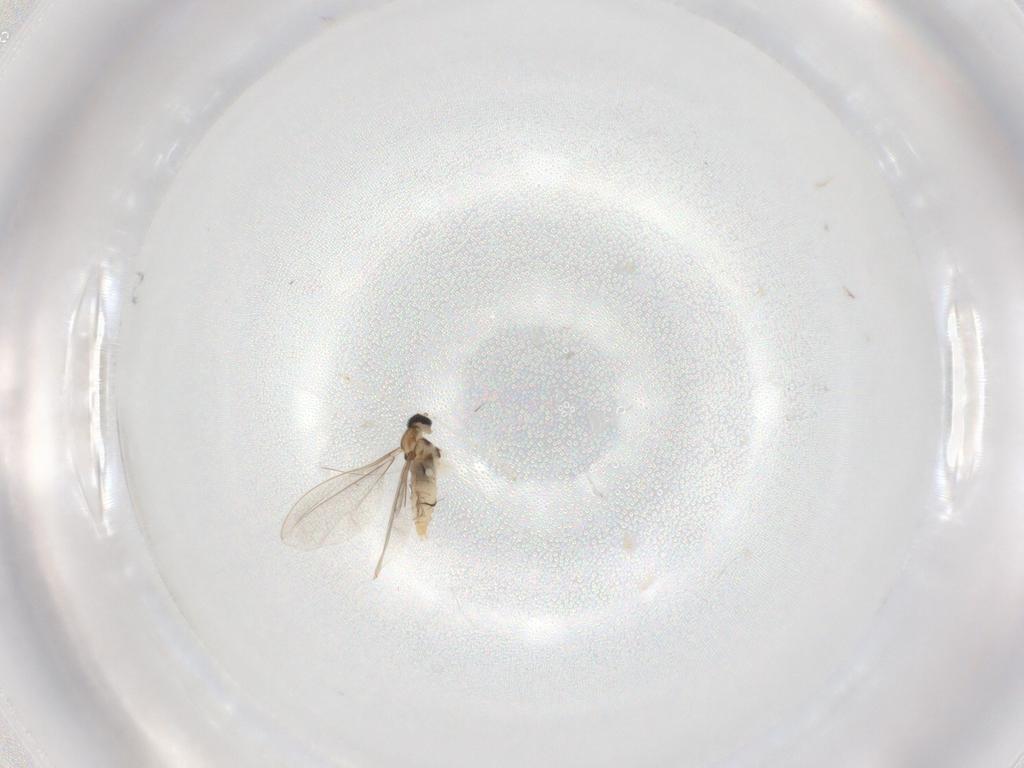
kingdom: Animalia
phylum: Arthropoda
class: Insecta
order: Diptera
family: Cecidomyiidae
